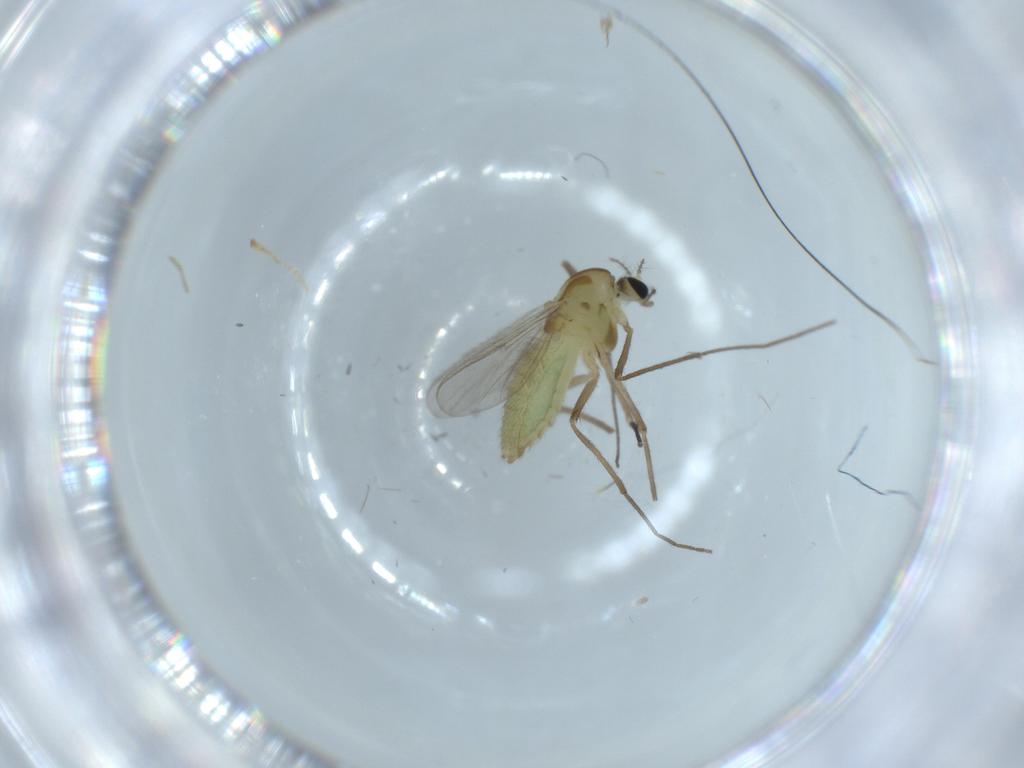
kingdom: Animalia
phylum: Arthropoda
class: Insecta
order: Diptera
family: Chironomidae
